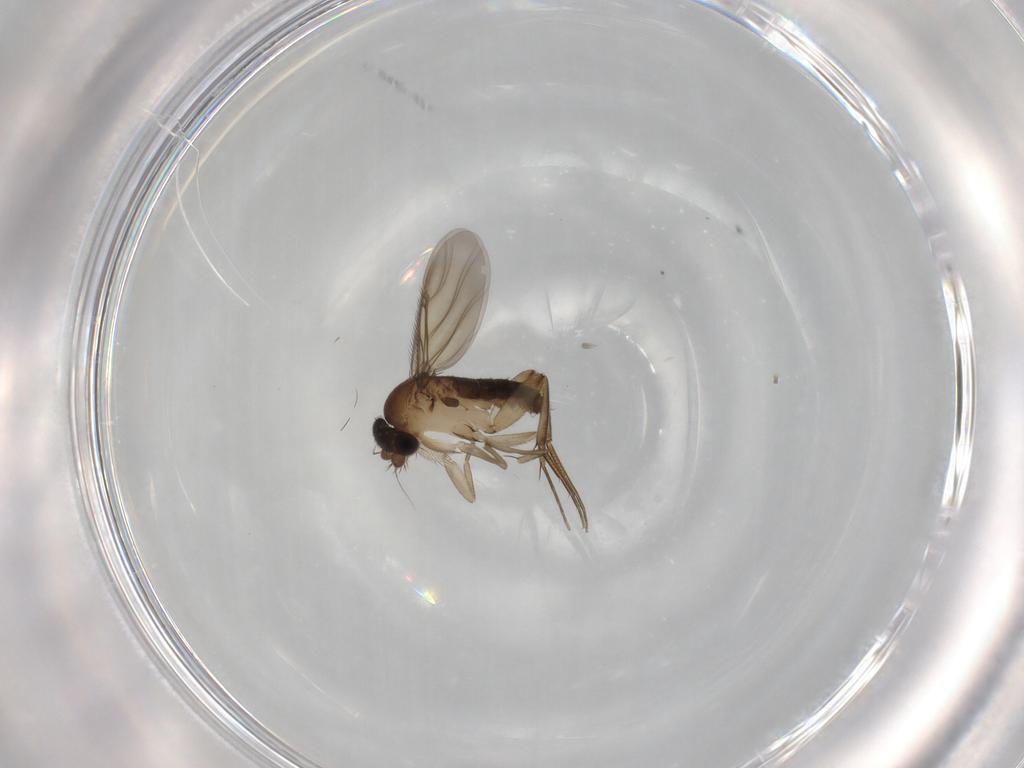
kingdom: Animalia
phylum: Arthropoda
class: Insecta
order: Diptera
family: Phoridae
